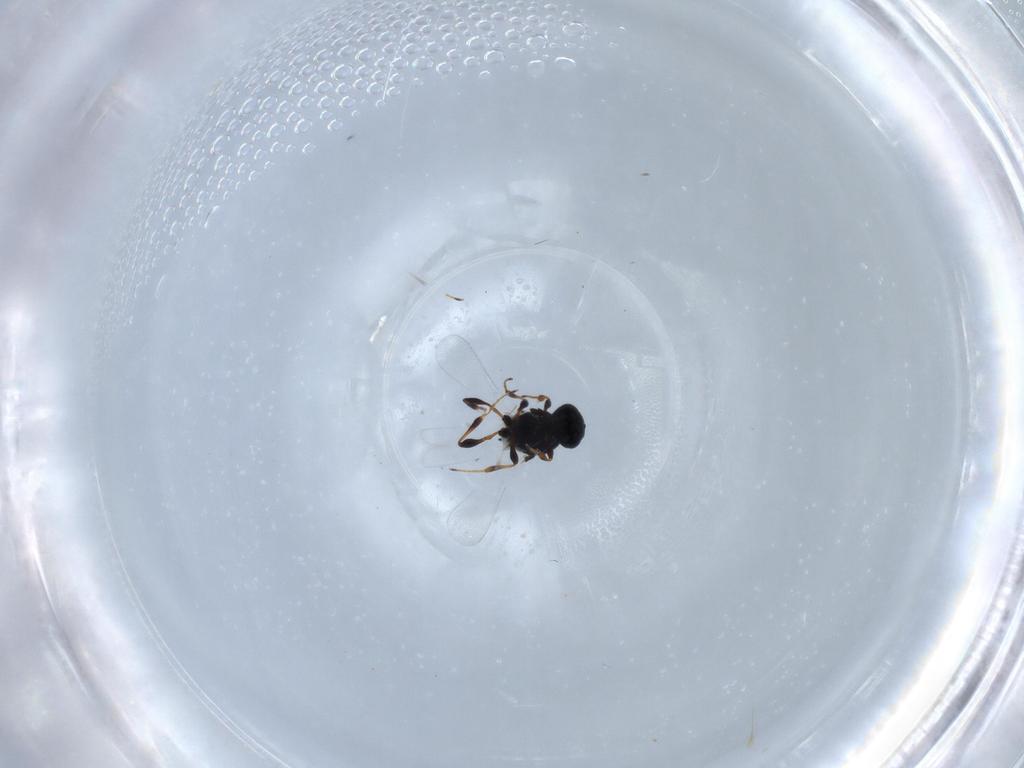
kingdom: Animalia
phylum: Arthropoda
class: Insecta
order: Hymenoptera
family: Platygastridae
